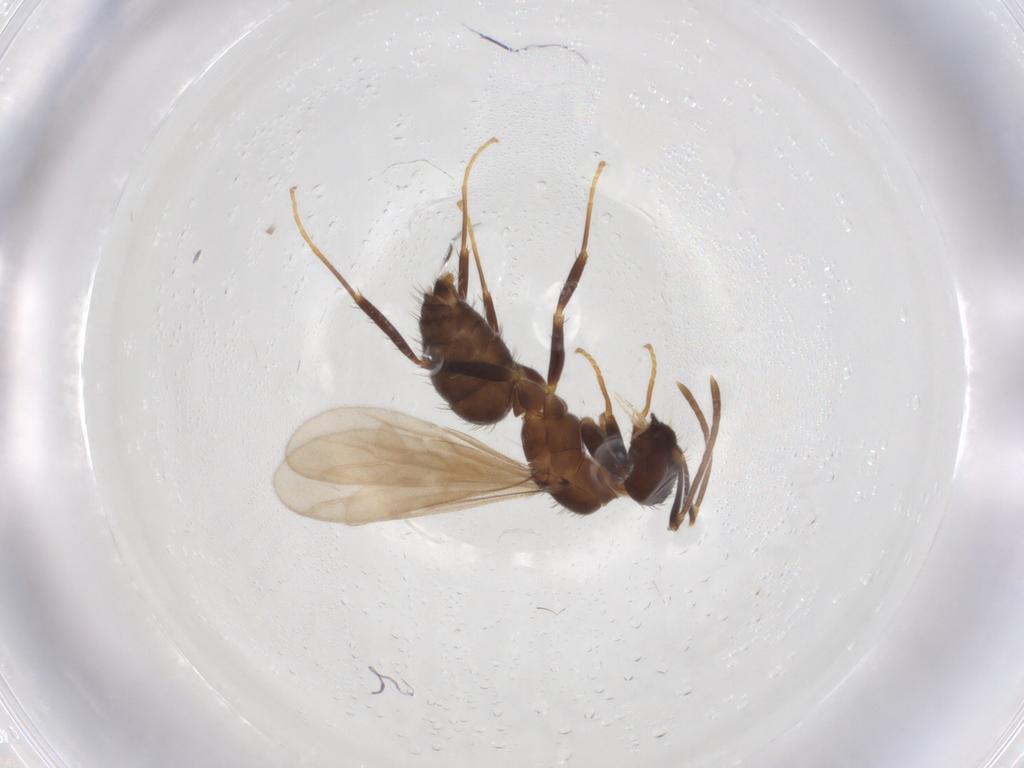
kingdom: Animalia
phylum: Arthropoda
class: Insecta
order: Hymenoptera
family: Formicidae
